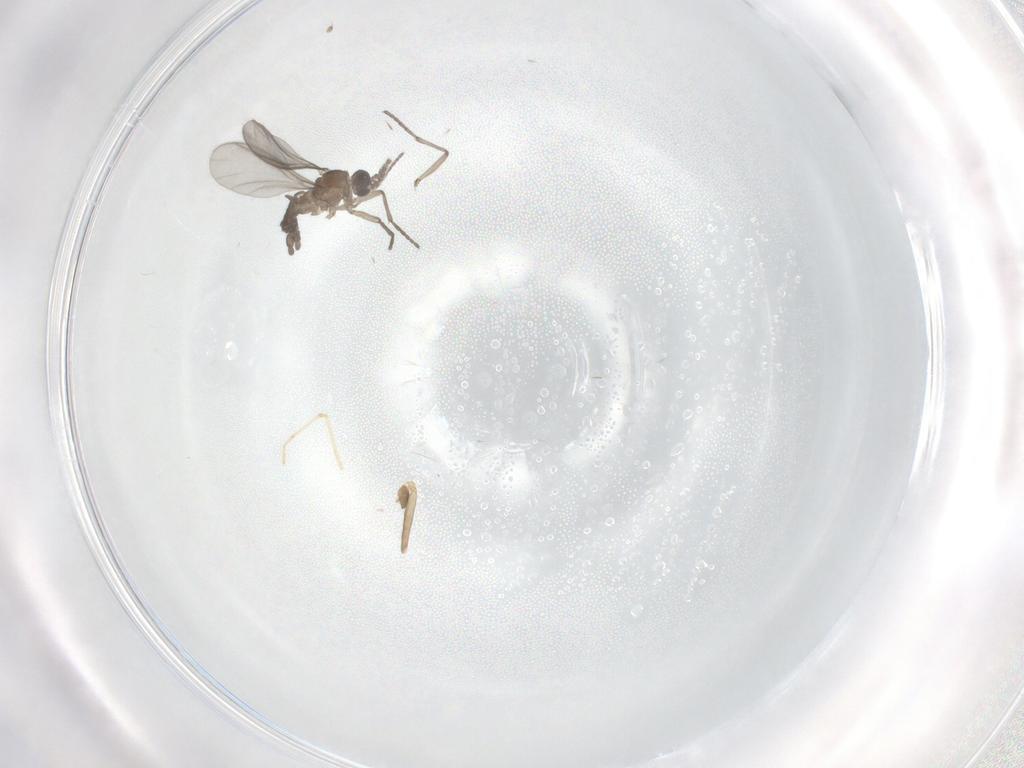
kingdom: Animalia
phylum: Arthropoda
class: Insecta
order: Diptera
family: Sciaridae
